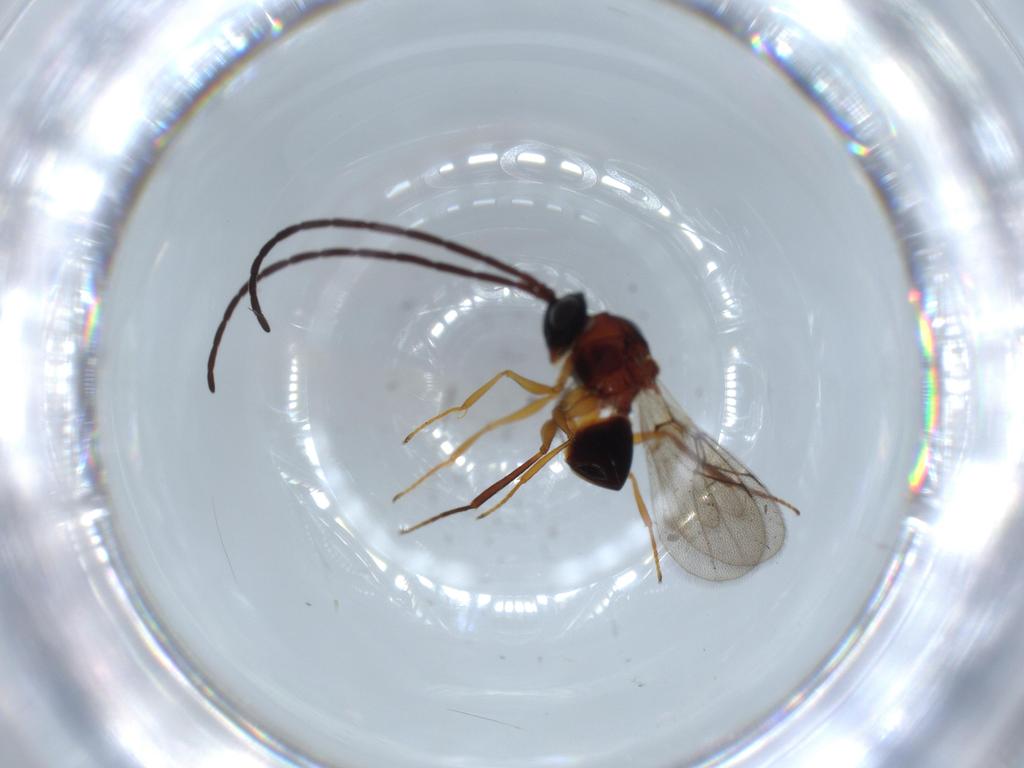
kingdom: Animalia
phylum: Arthropoda
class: Insecta
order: Hymenoptera
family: Figitidae
